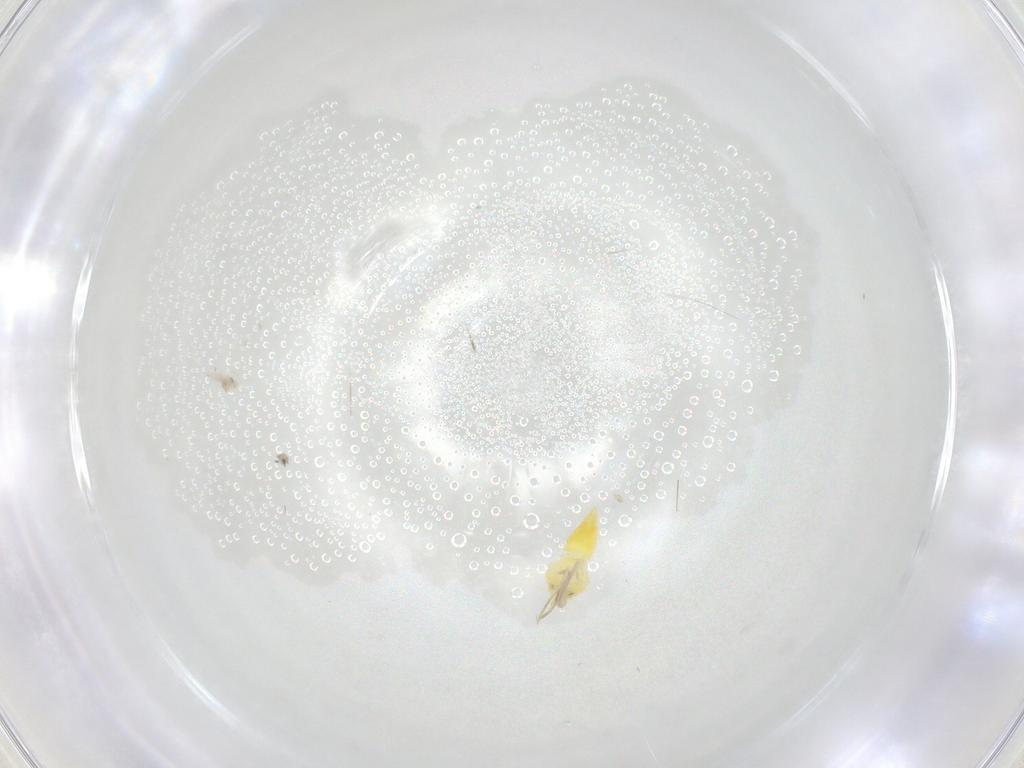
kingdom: Animalia
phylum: Arthropoda
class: Insecta
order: Hemiptera
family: Aleyrodidae
